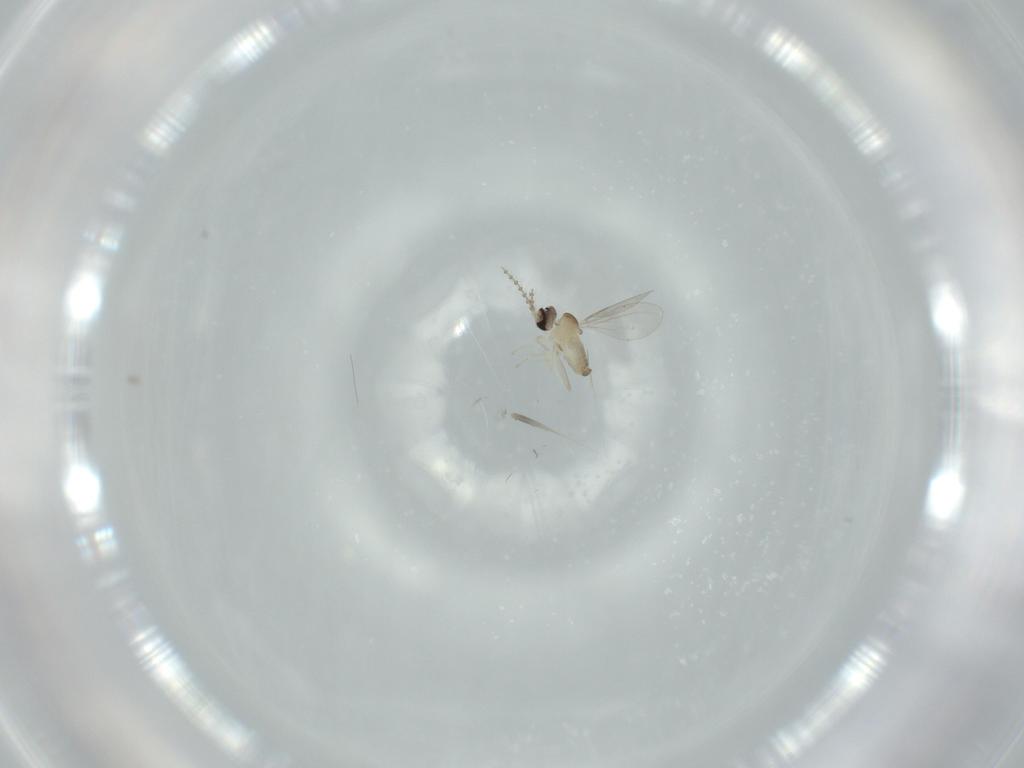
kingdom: Animalia
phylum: Arthropoda
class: Insecta
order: Diptera
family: Cecidomyiidae
